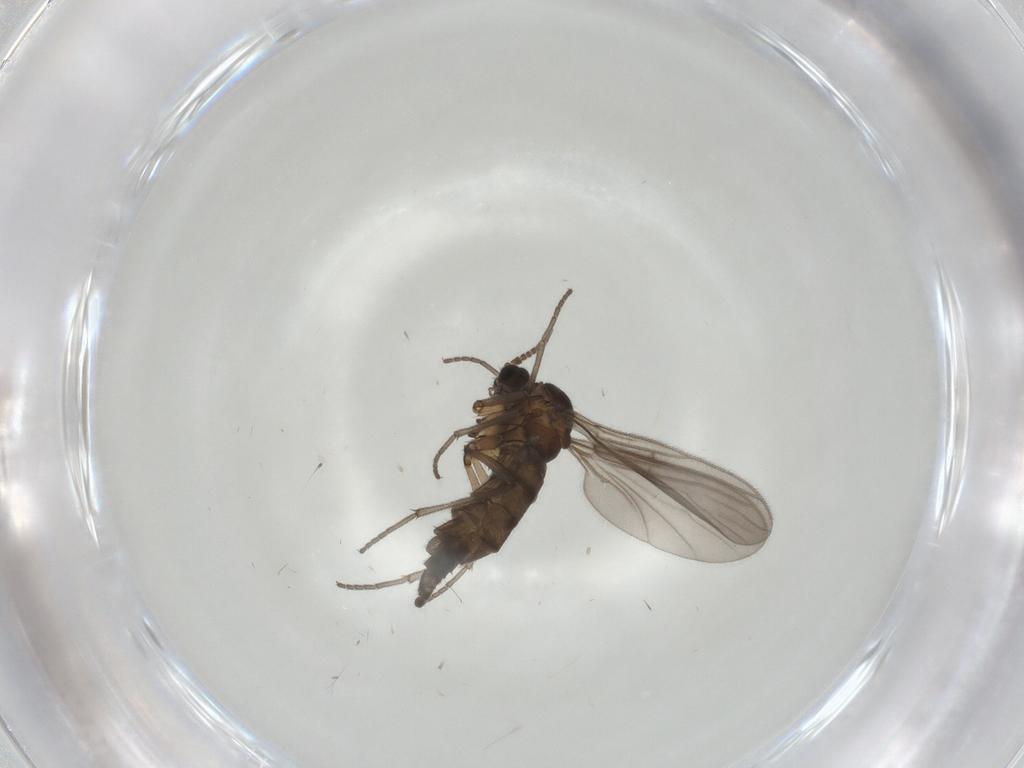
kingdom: Animalia
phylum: Arthropoda
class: Insecta
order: Diptera
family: Sciaridae
